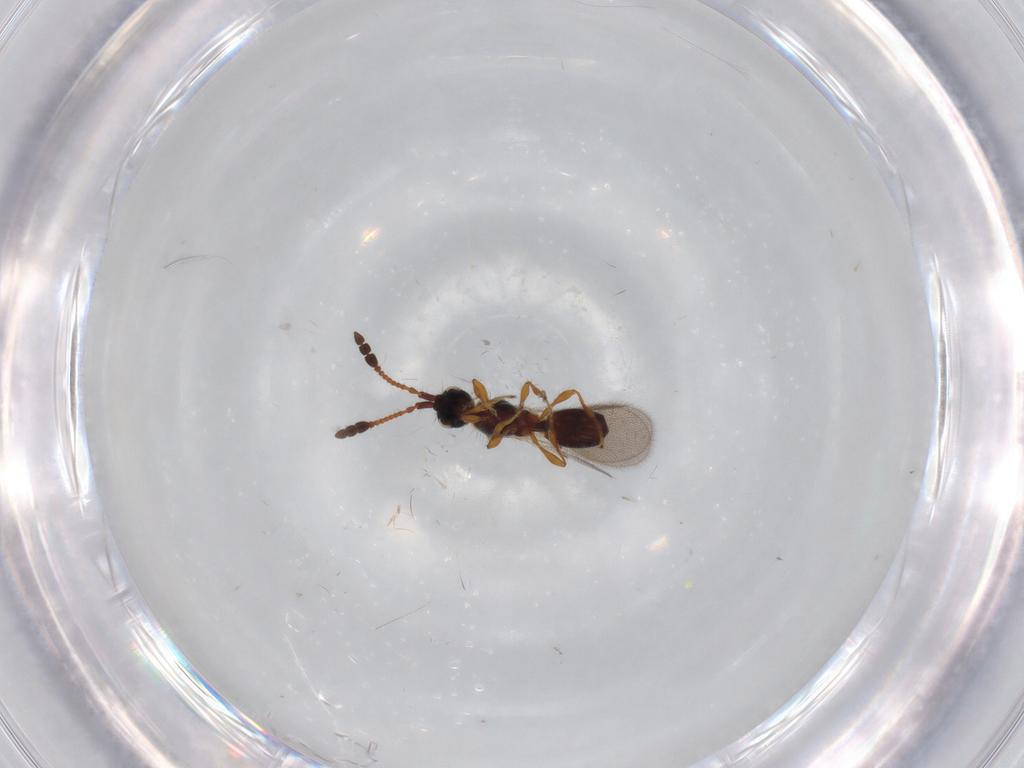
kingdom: Animalia
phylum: Arthropoda
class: Insecta
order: Hymenoptera
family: Diapriidae
